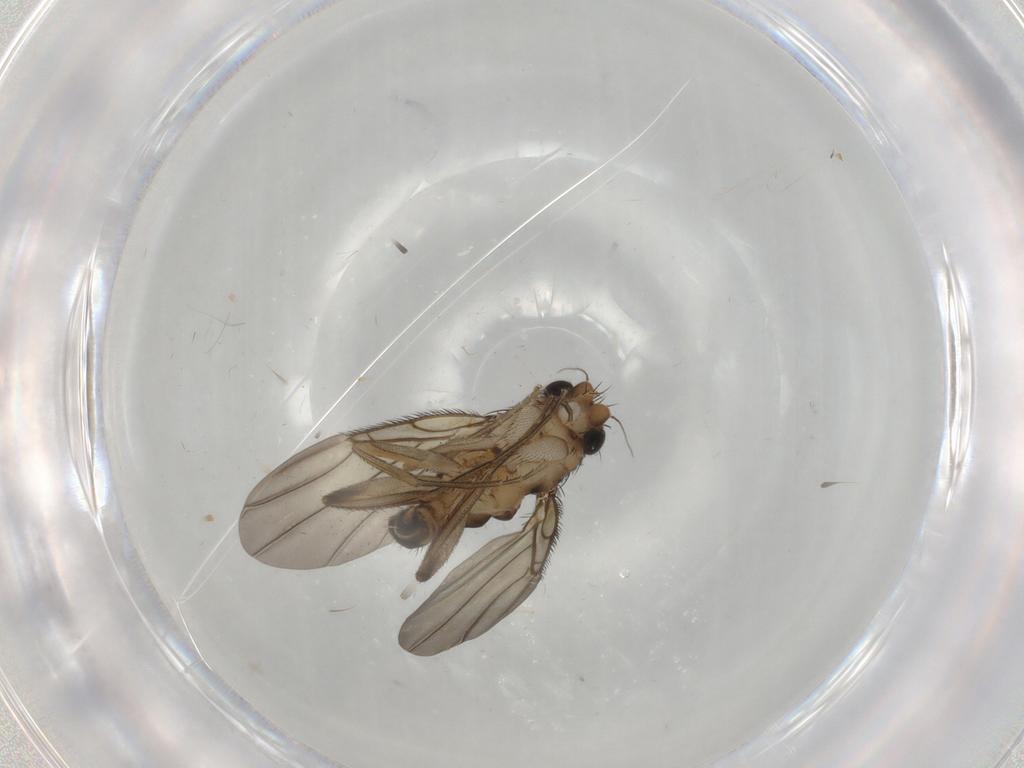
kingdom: Animalia
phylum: Arthropoda
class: Insecta
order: Diptera
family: Phoridae
